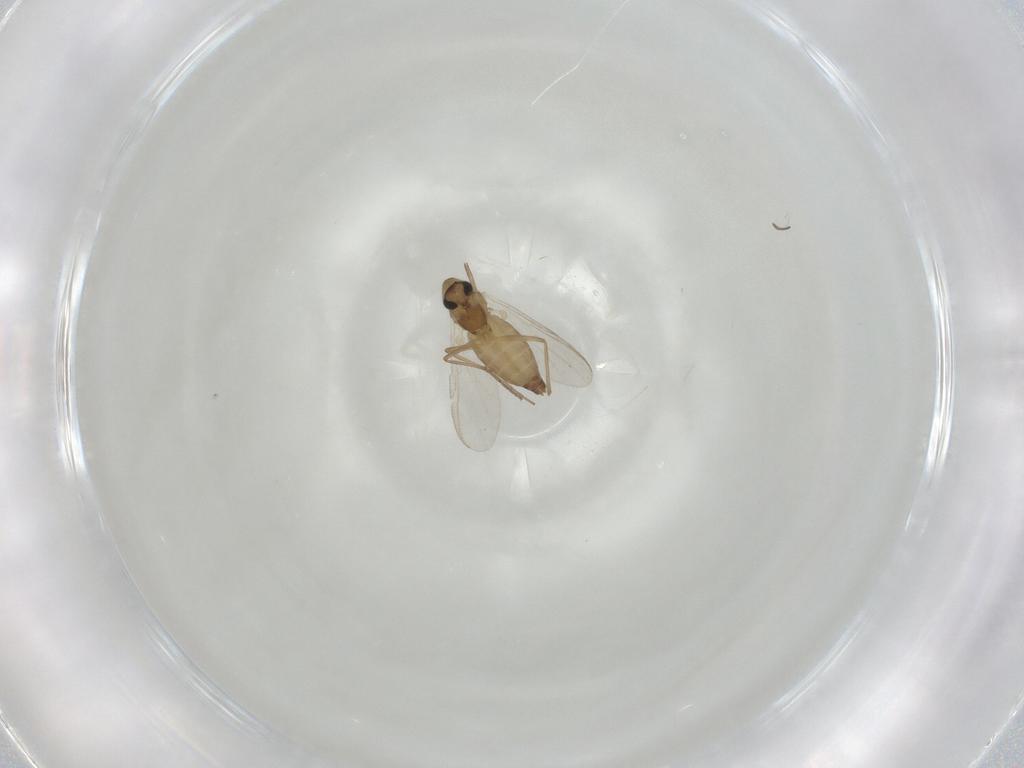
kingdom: Animalia
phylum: Arthropoda
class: Insecta
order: Diptera
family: Chironomidae
